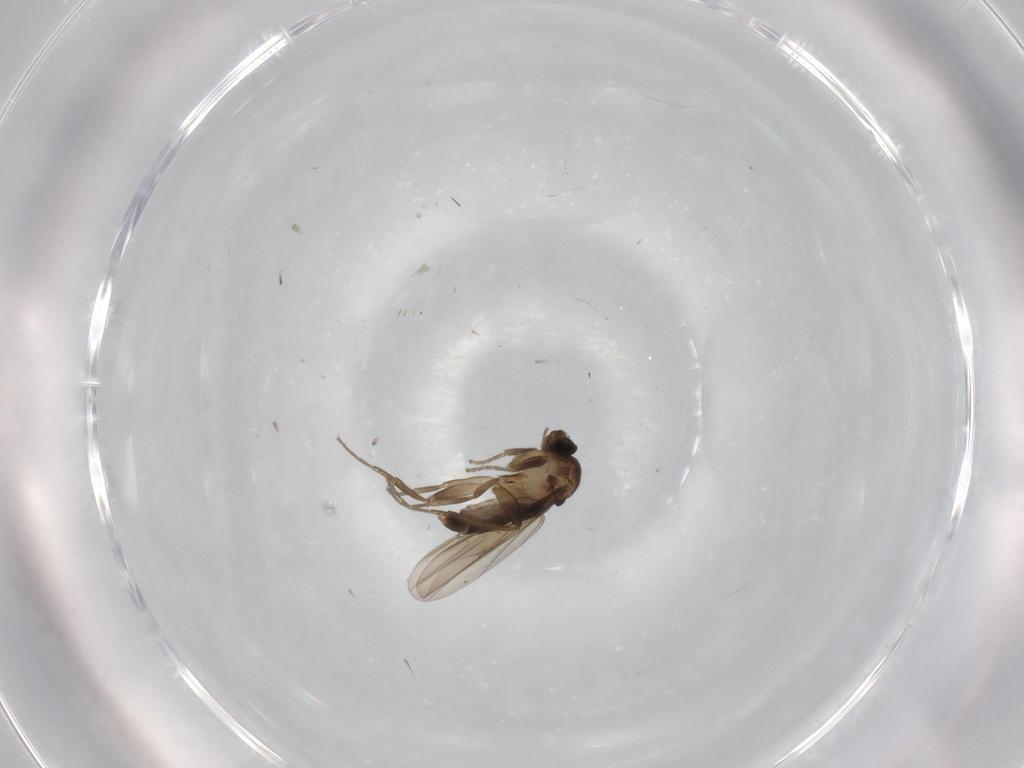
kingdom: Animalia
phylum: Arthropoda
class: Insecta
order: Diptera
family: Phoridae
